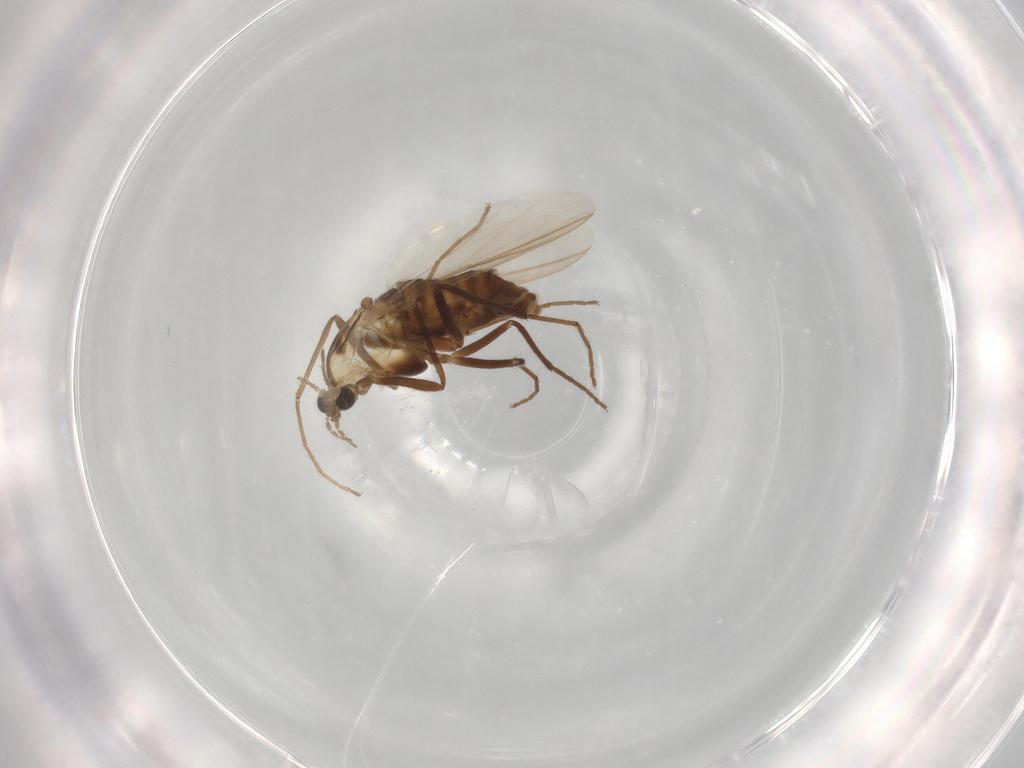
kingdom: Animalia
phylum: Arthropoda
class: Insecta
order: Diptera
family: Chironomidae
